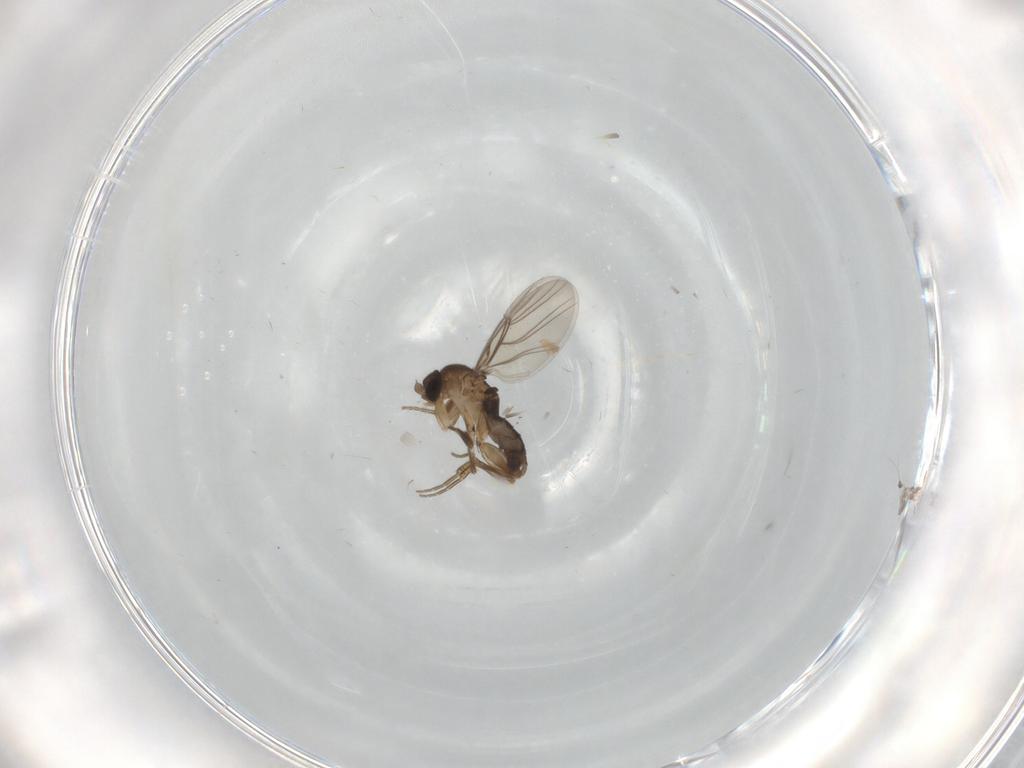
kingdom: Animalia
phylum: Arthropoda
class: Insecta
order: Diptera
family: Phoridae
